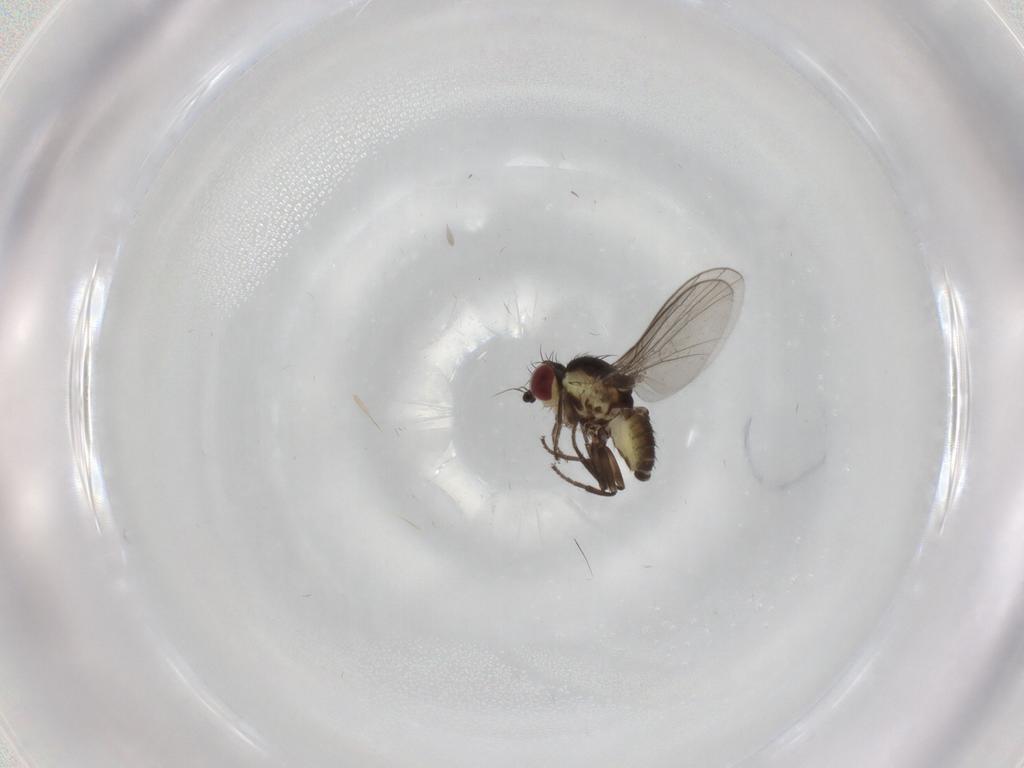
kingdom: Animalia
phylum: Arthropoda
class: Insecta
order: Diptera
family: Agromyzidae
